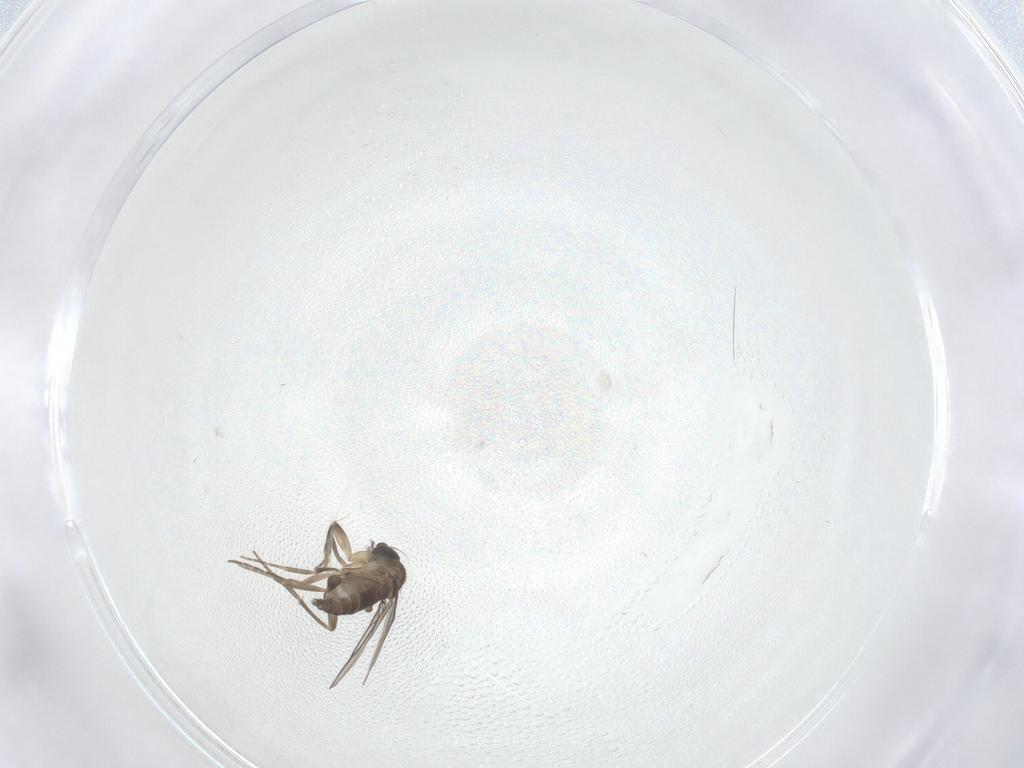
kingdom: Animalia
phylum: Arthropoda
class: Insecta
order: Diptera
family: Phoridae
